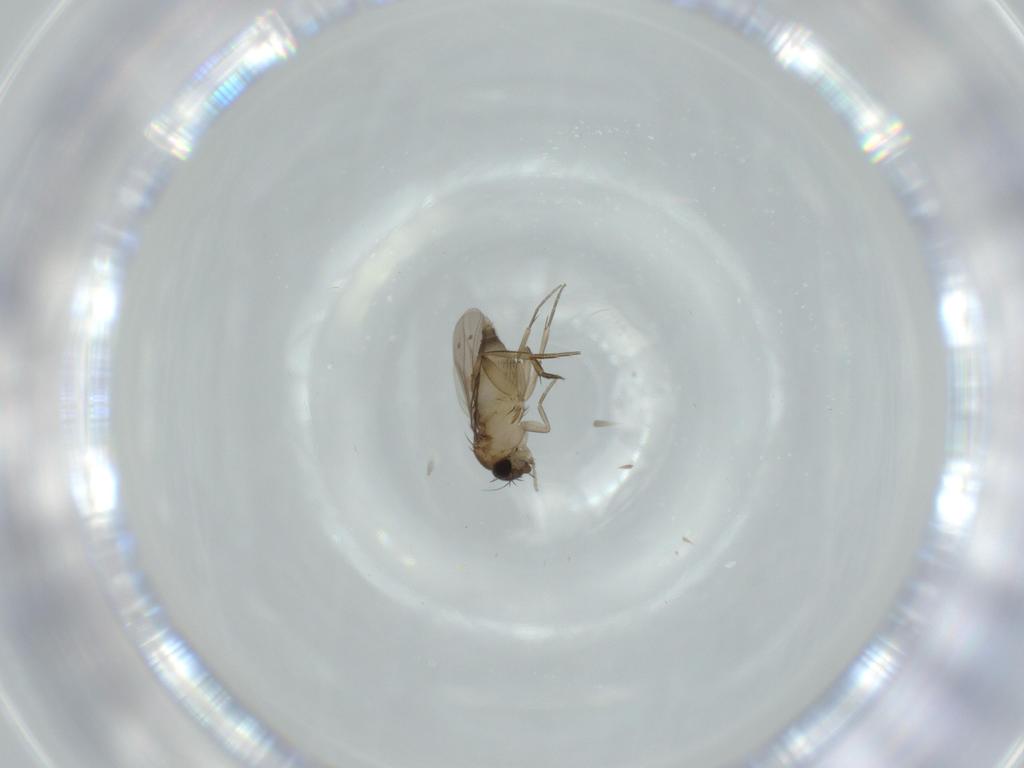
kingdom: Animalia
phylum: Arthropoda
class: Insecta
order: Diptera
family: Phoridae
